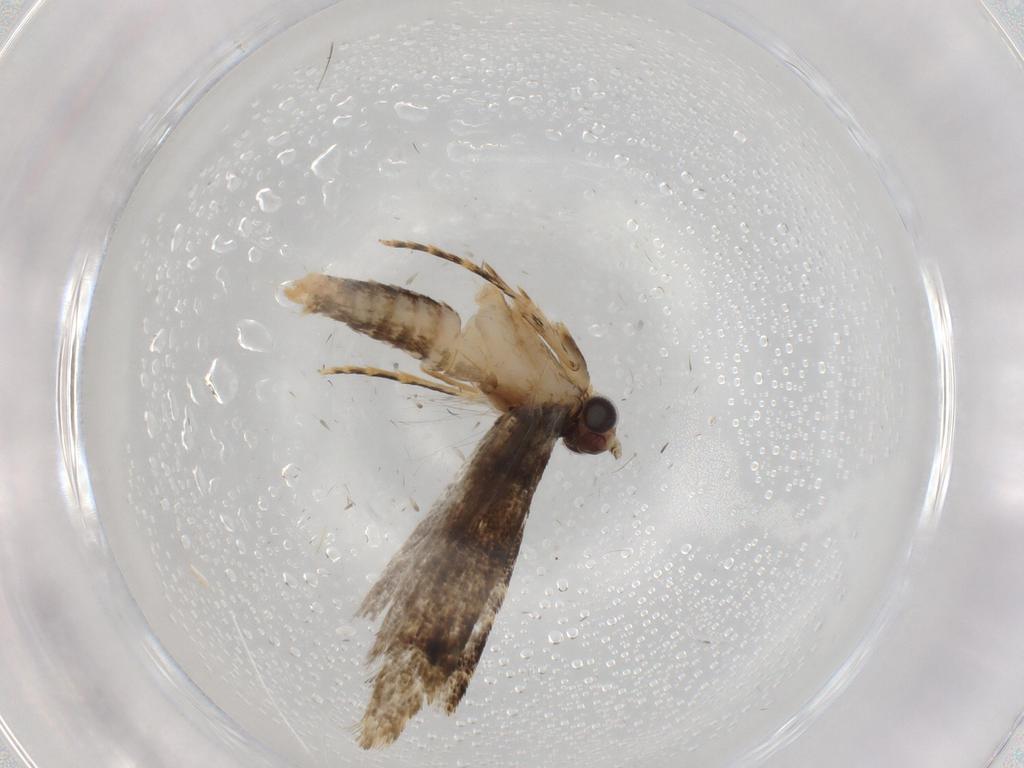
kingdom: Animalia
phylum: Arthropoda
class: Insecta
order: Lepidoptera
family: Tineidae
